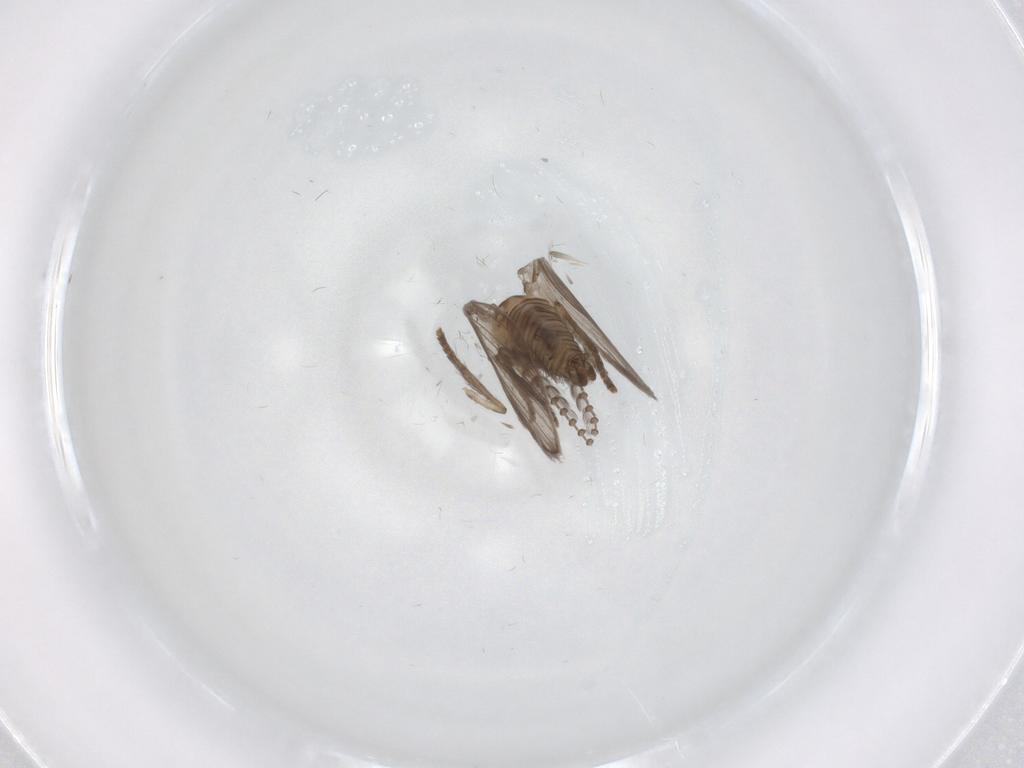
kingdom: Animalia
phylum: Arthropoda
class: Insecta
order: Diptera
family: Psychodidae
